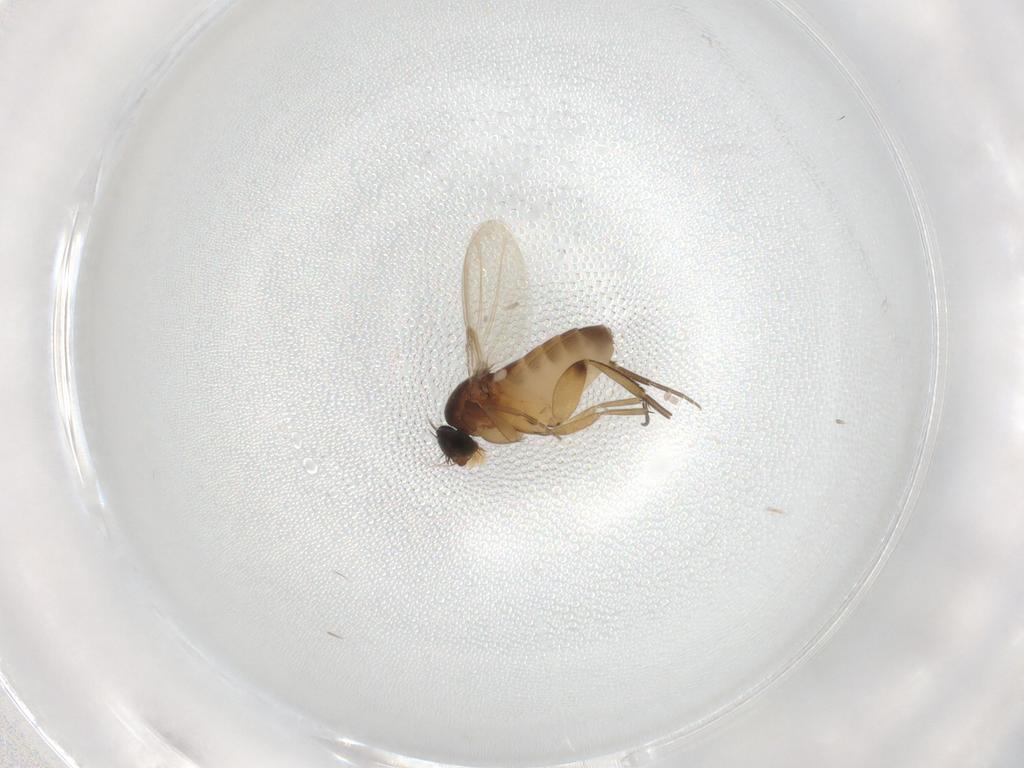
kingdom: Animalia
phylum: Arthropoda
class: Insecta
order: Diptera
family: Phoridae
